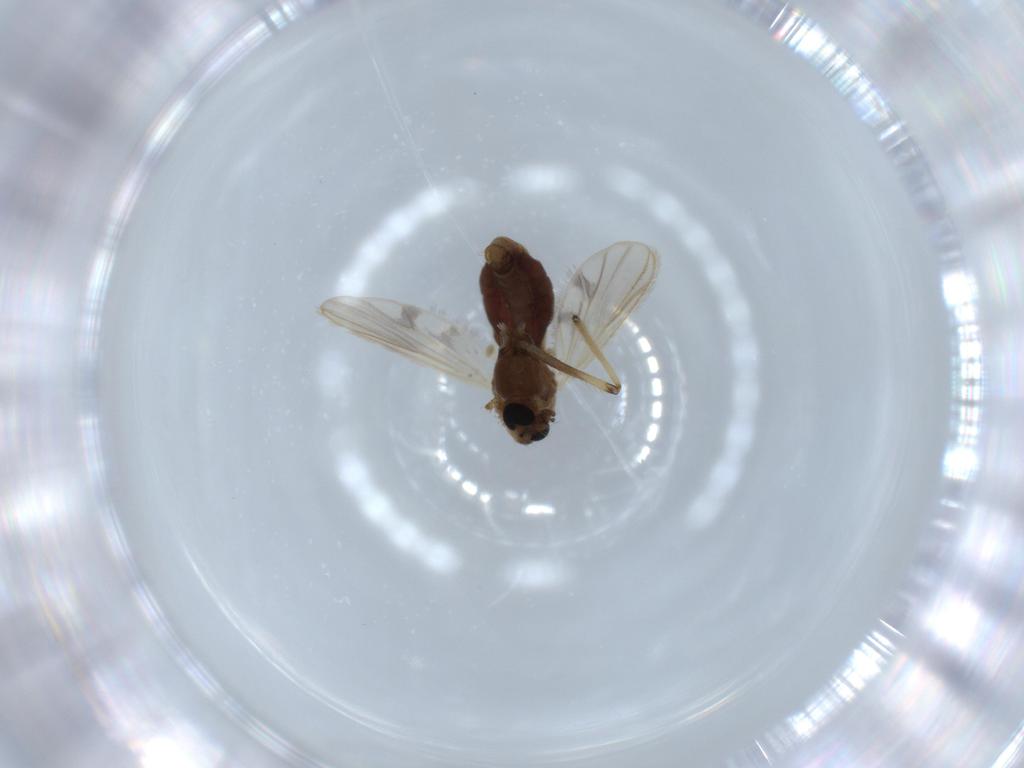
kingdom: Animalia
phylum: Arthropoda
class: Insecta
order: Diptera
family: Chironomidae
